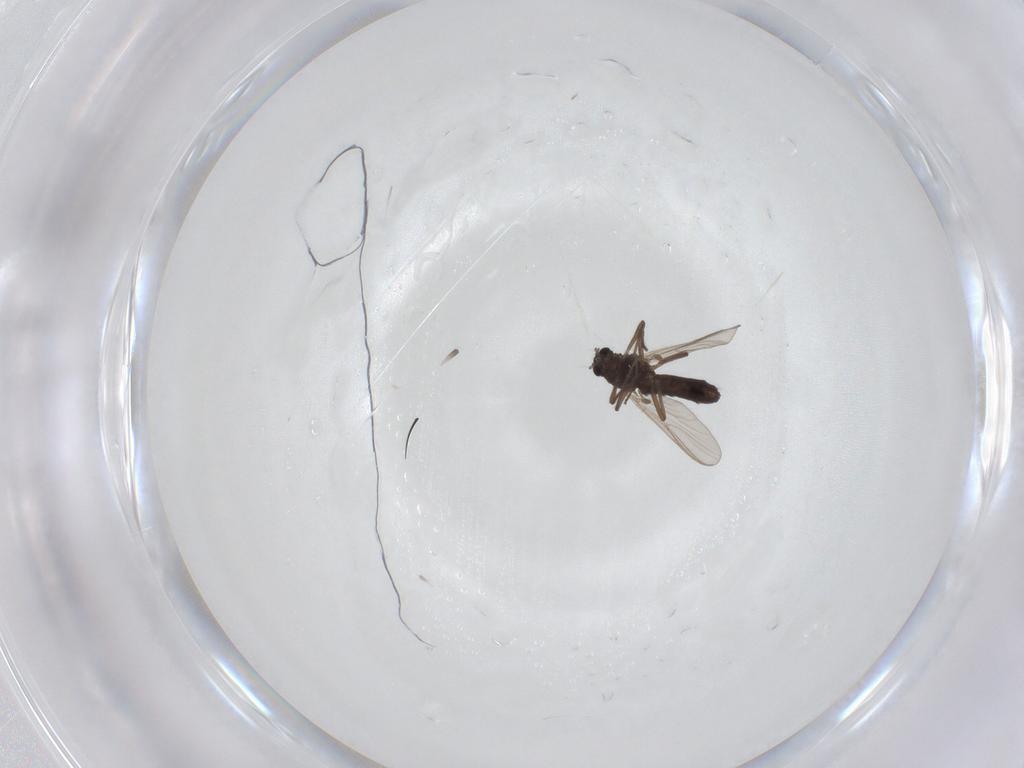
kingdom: Animalia
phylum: Arthropoda
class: Insecta
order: Diptera
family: Chironomidae
